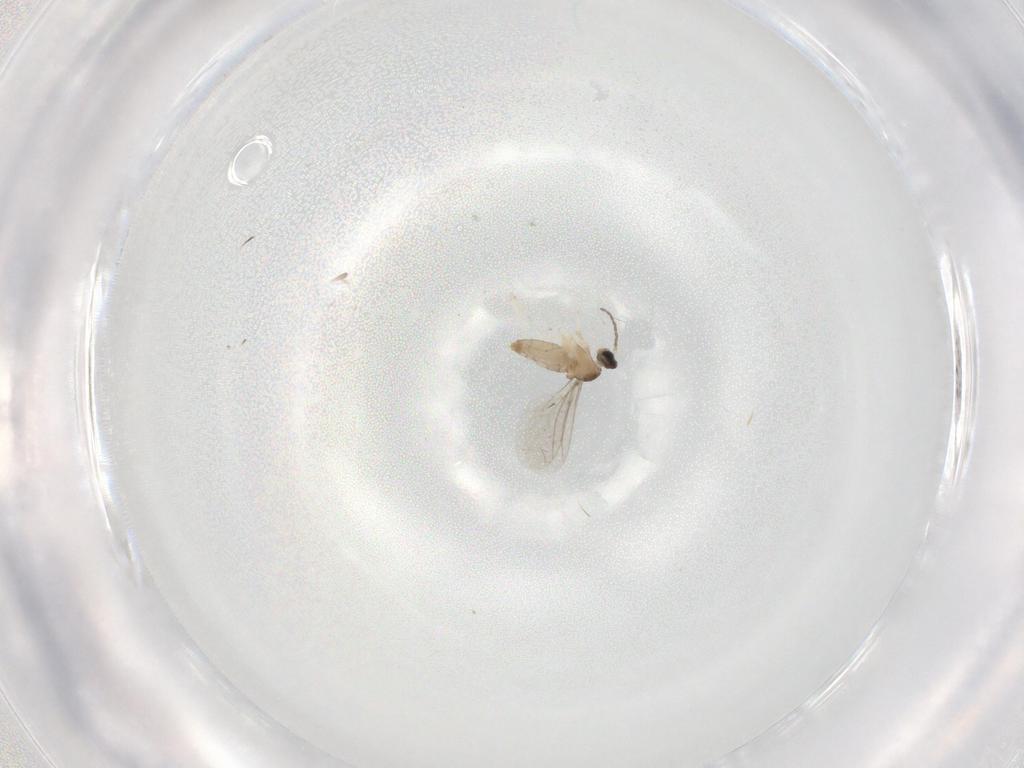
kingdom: Animalia
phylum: Arthropoda
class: Insecta
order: Diptera
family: Cecidomyiidae
